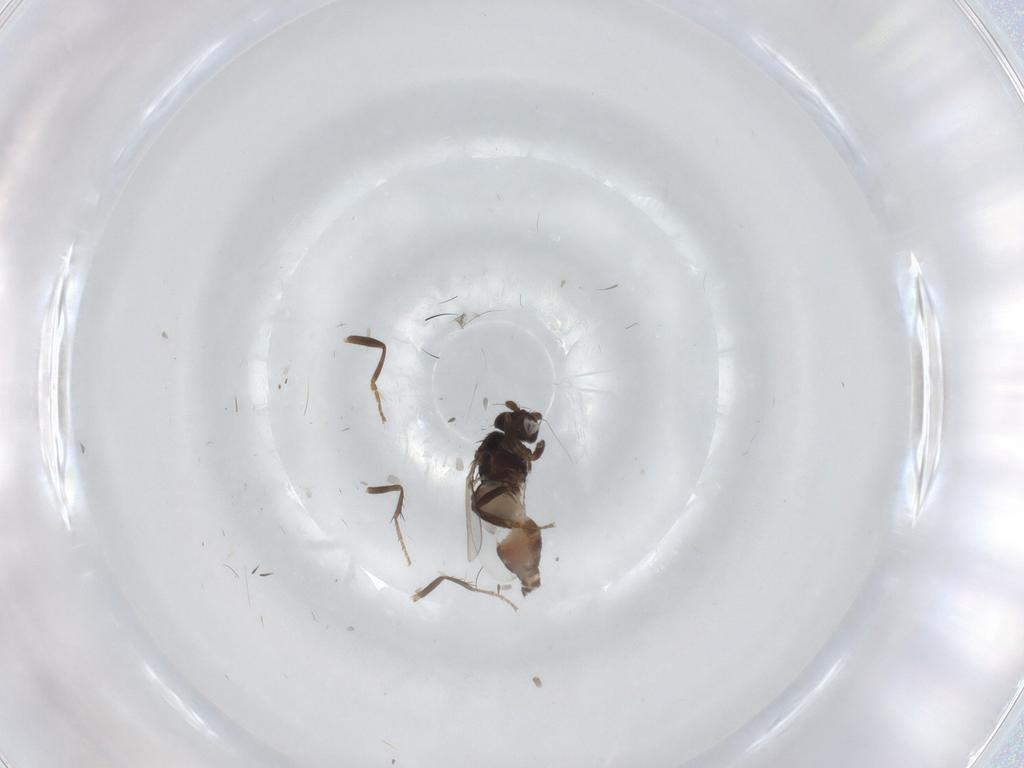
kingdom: Animalia
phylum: Arthropoda
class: Insecta
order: Diptera
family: Sphaeroceridae
